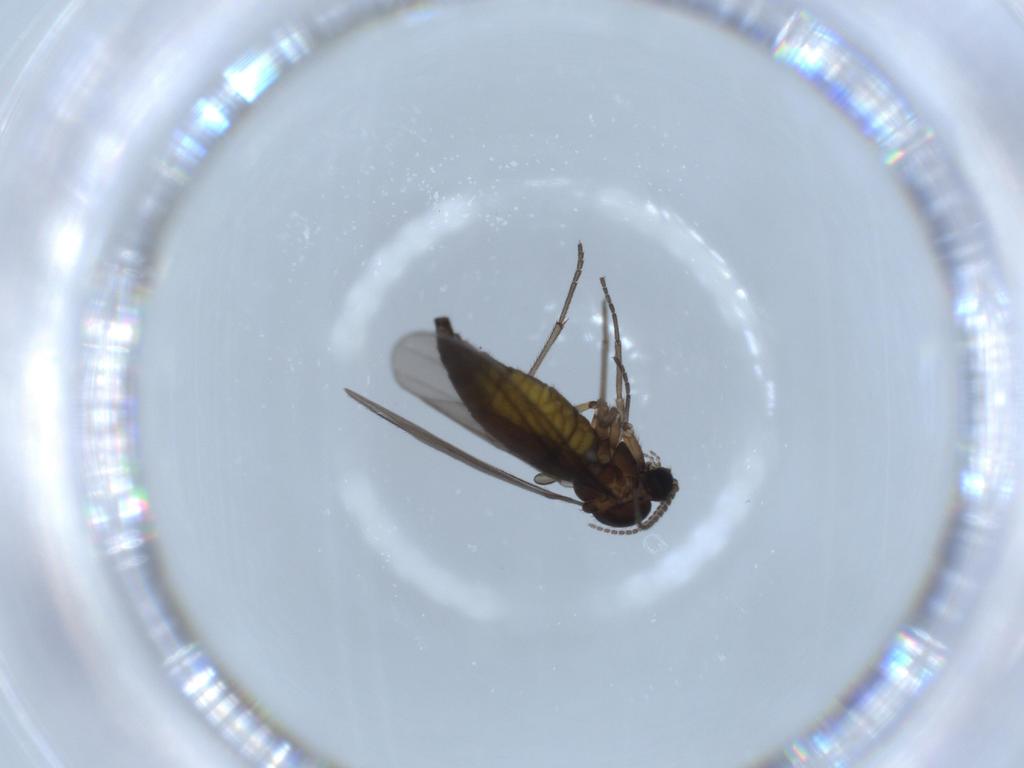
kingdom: Animalia
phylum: Arthropoda
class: Insecta
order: Diptera
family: Sciaridae
